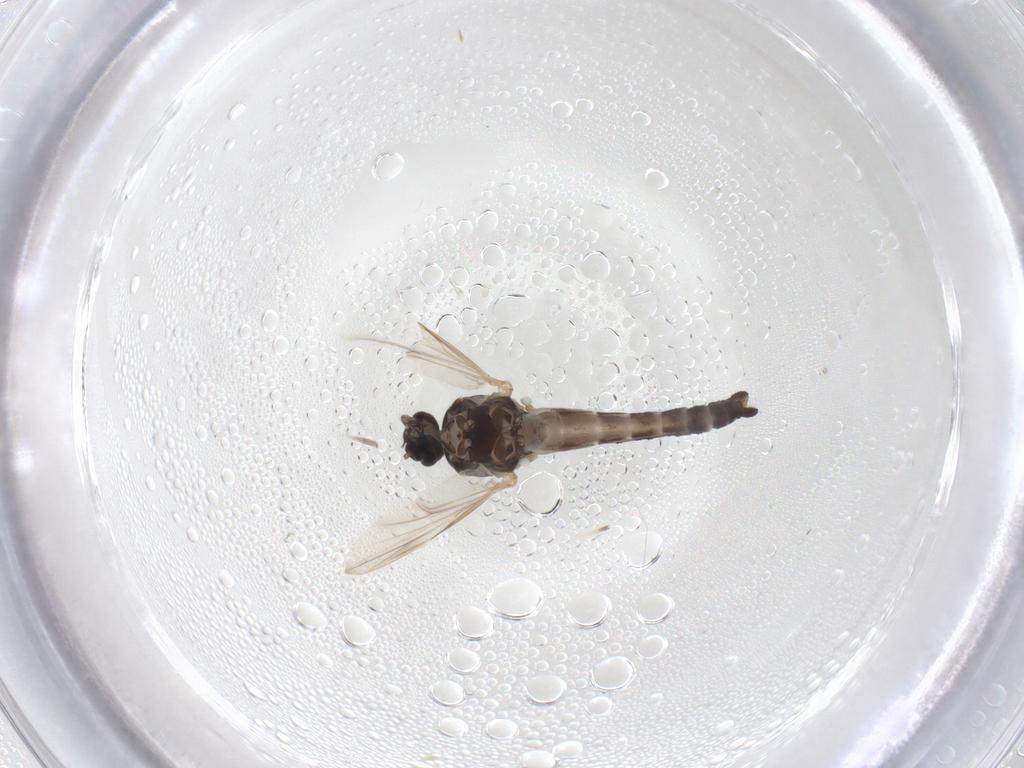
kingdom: Animalia
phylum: Arthropoda
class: Insecta
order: Diptera
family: Ceratopogonidae
